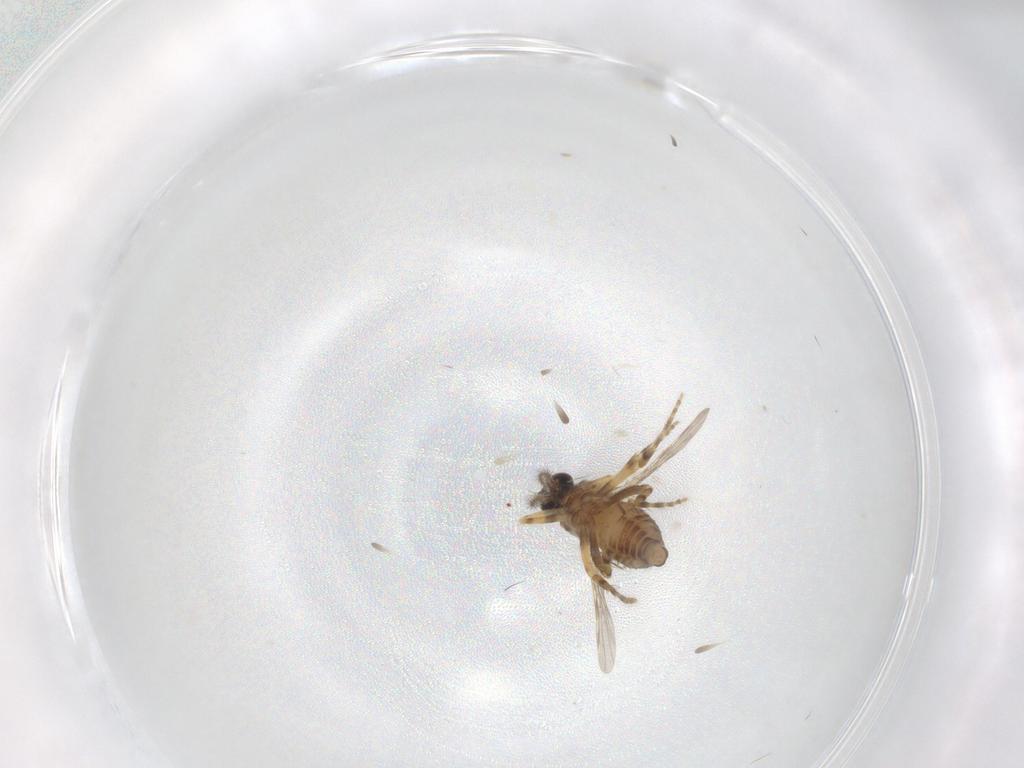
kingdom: Animalia
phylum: Arthropoda
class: Insecta
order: Diptera
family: Ceratopogonidae
